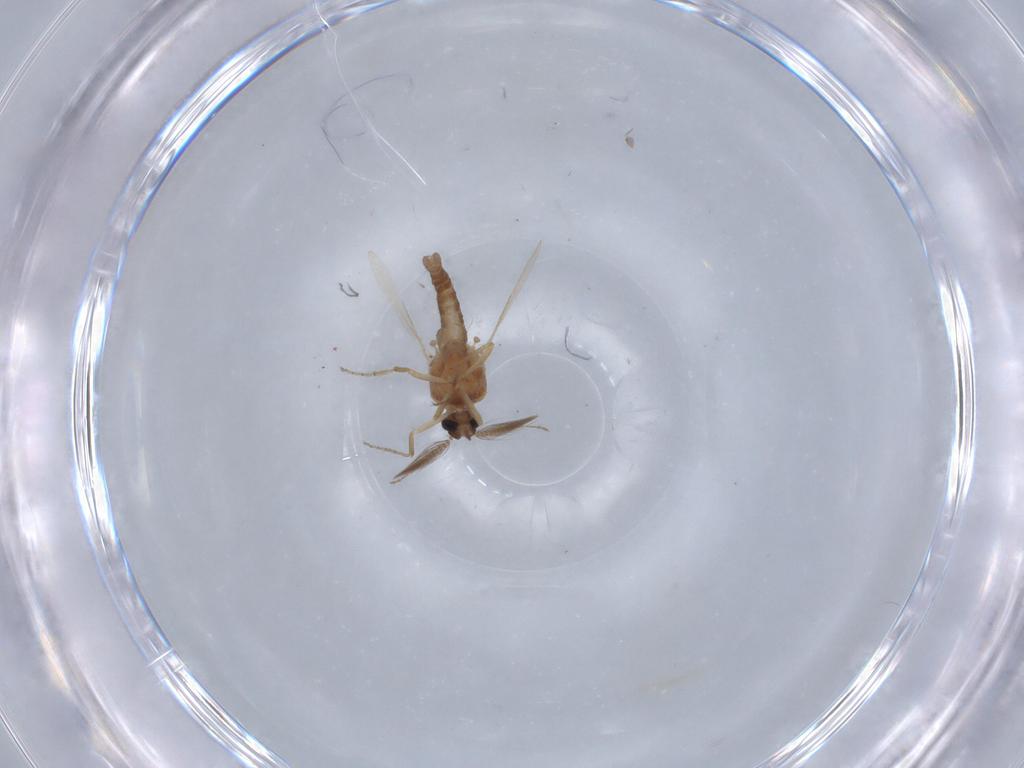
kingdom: Animalia
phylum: Arthropoda
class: Insecta
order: Diptera
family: Ceratopogonidae
